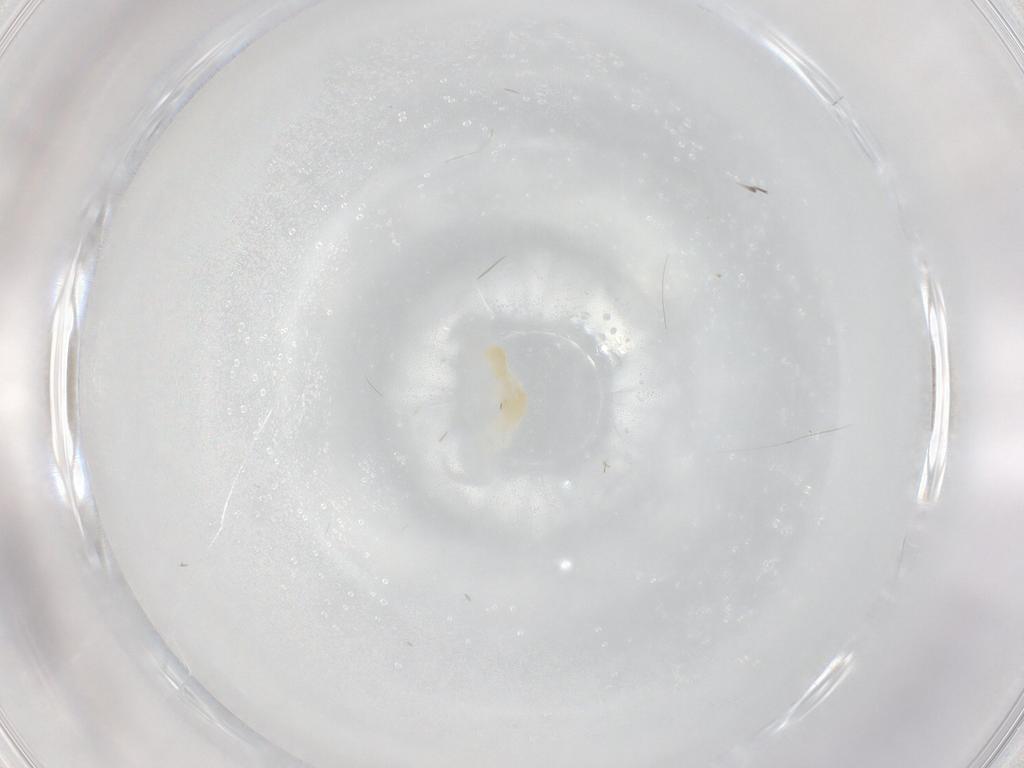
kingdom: Animalia
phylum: Arthropoda
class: Arachnida
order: Trombidiformes
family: Eupodidae
